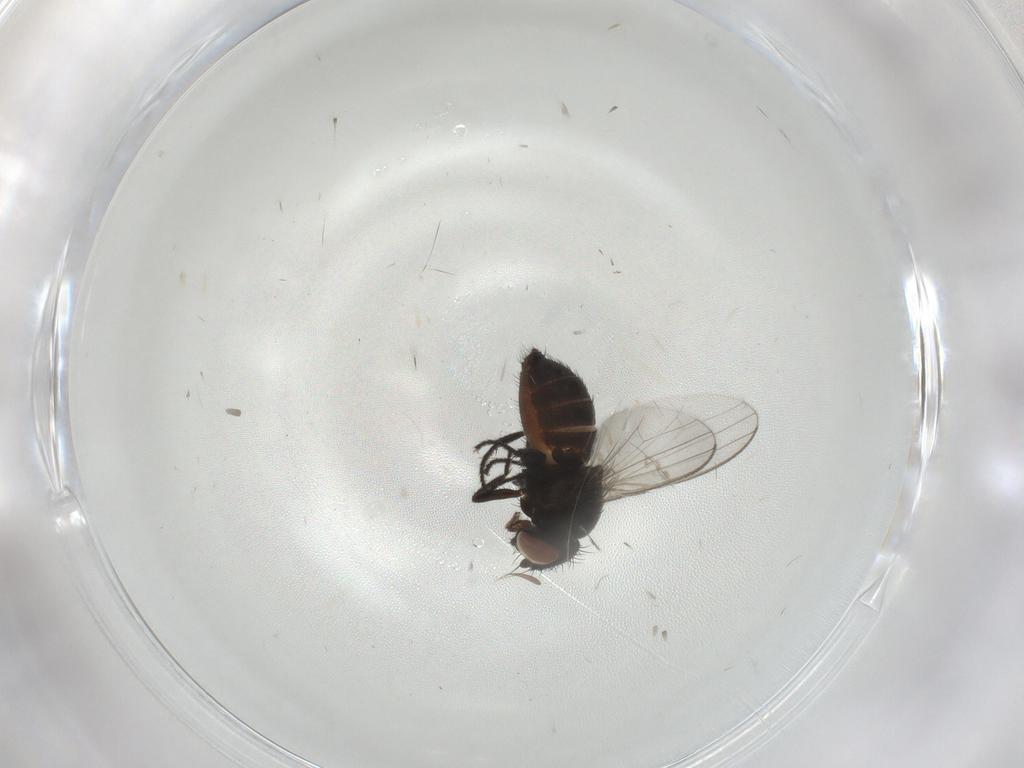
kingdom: Animalia
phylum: Arthropoda
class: Insecta
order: Diptera
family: Milichiidae
